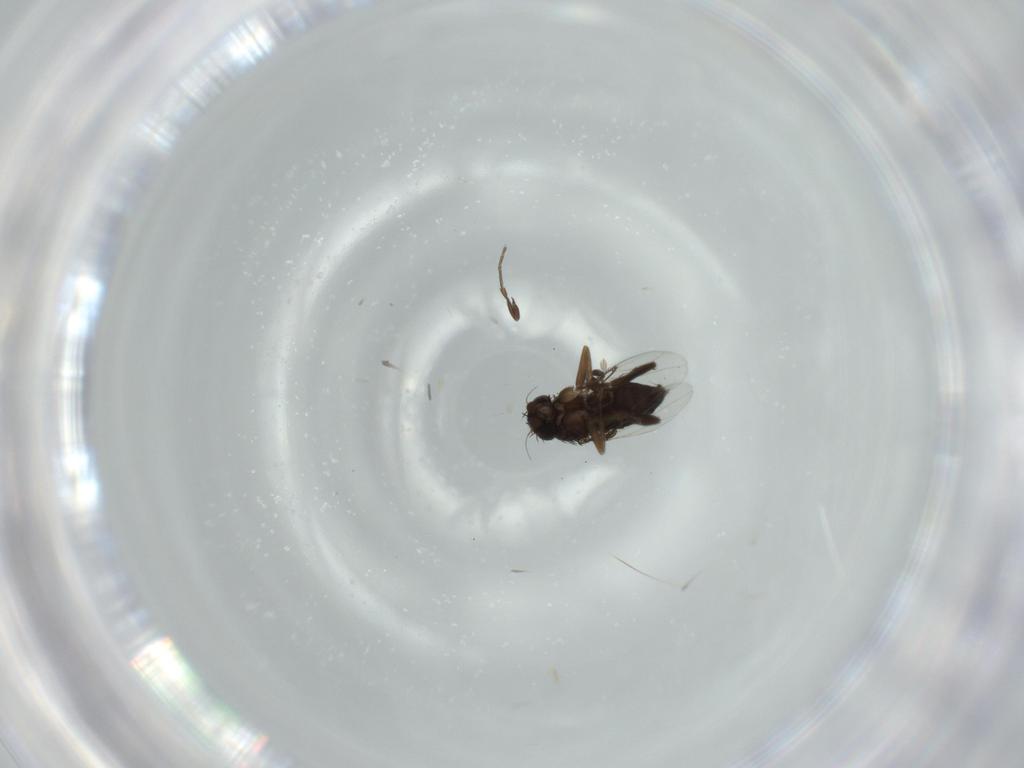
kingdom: Animalia
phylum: Arthropoda
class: Insecta
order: Diptera
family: Phoridae
